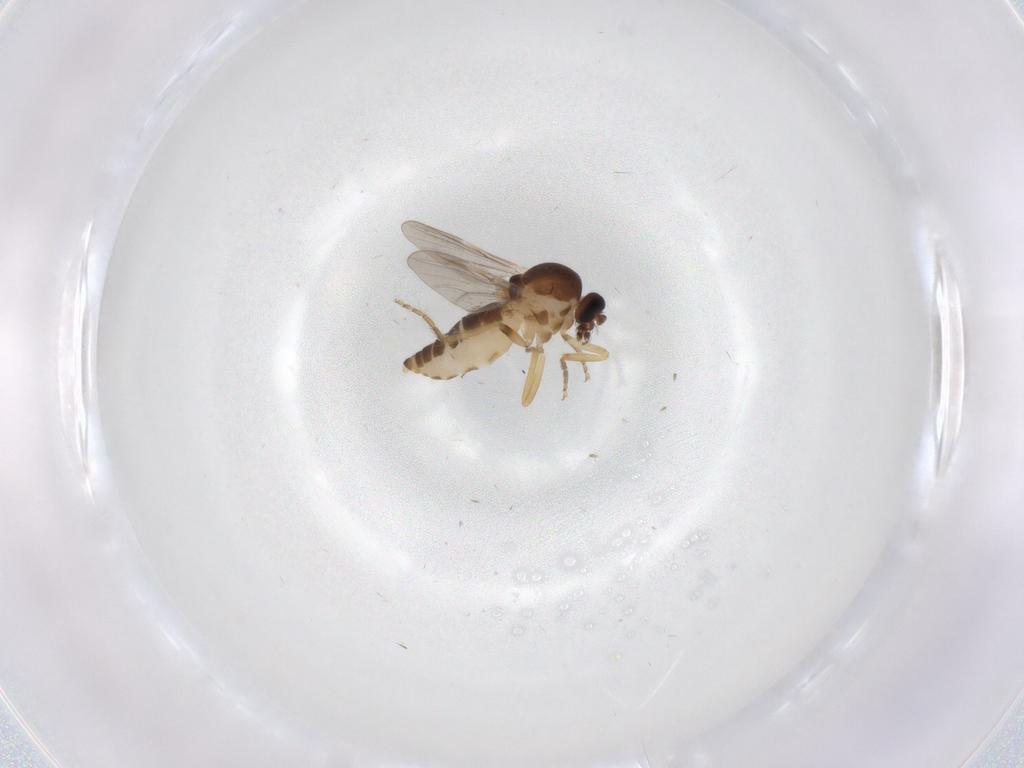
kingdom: Animalia
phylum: Arthropoda
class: Insecta
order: Diptera
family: Ceratopogonidae
